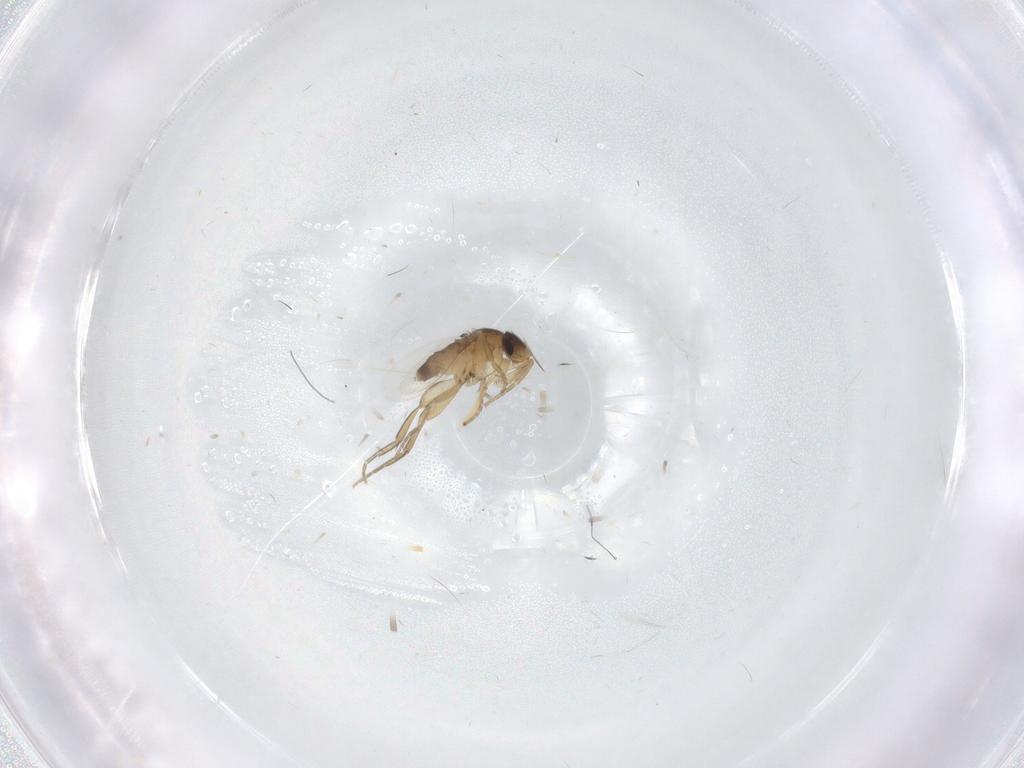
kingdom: Animalia
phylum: Arthropoda
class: Insecta
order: Diptera
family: Phoridae
